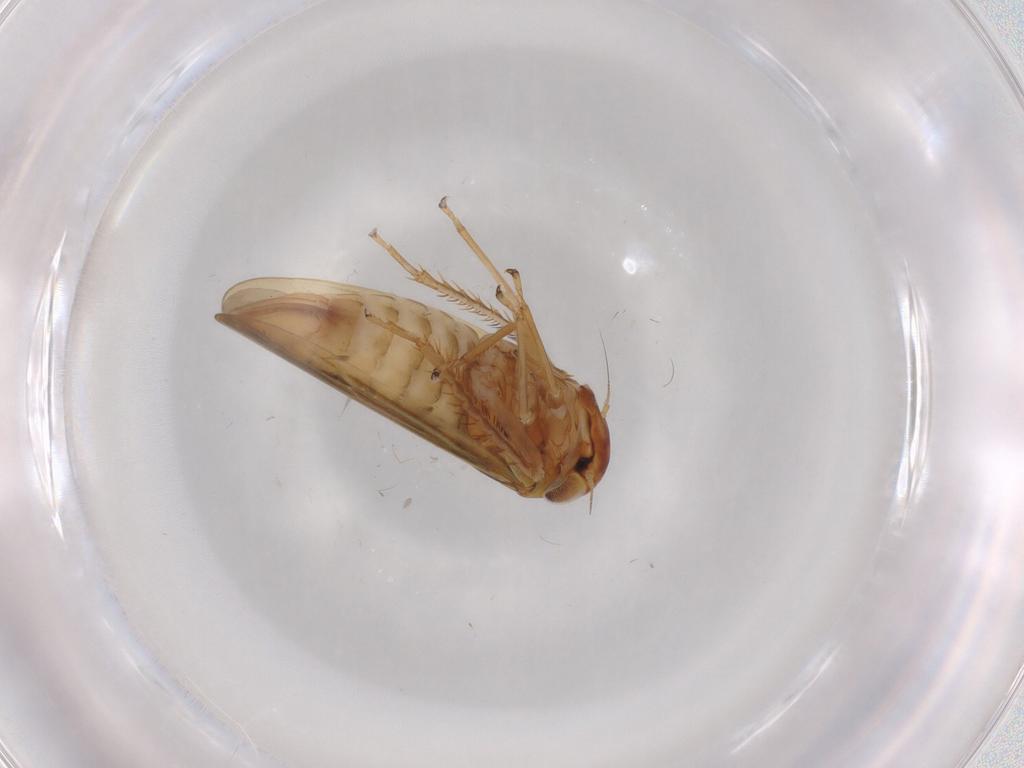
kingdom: Animalia
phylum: Arthropoda
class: Insecta
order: Hemiptera
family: Cicadellidae
